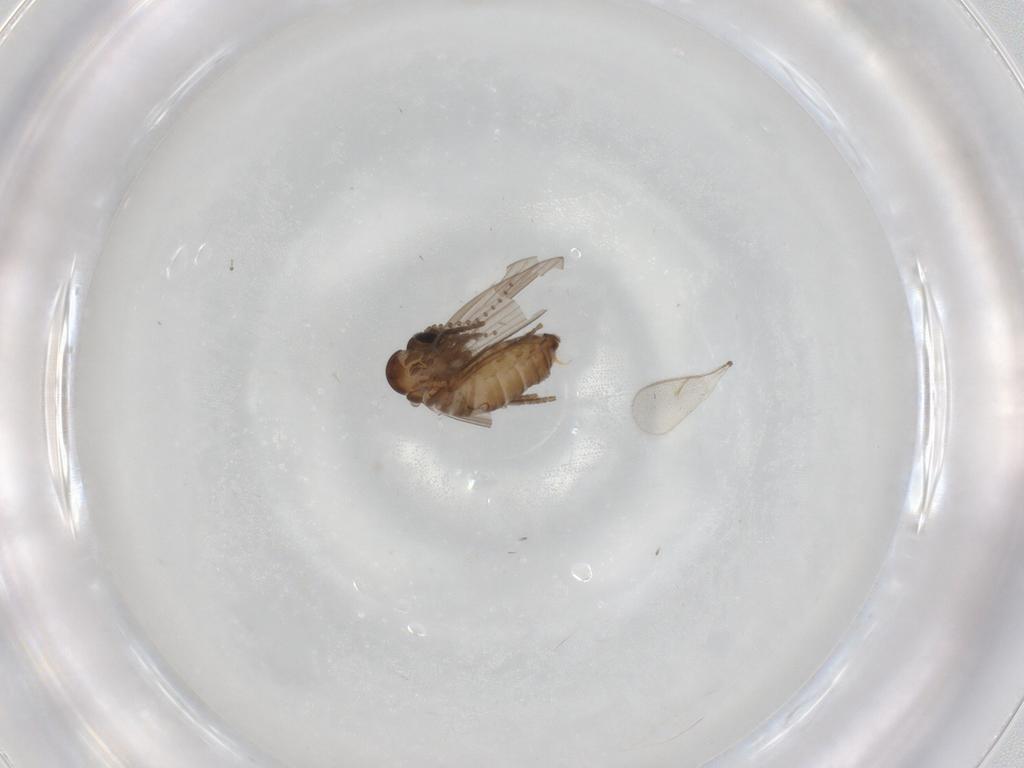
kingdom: Animalia
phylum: Arthropoda
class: Insecta
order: Diptera
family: Psychodidae
